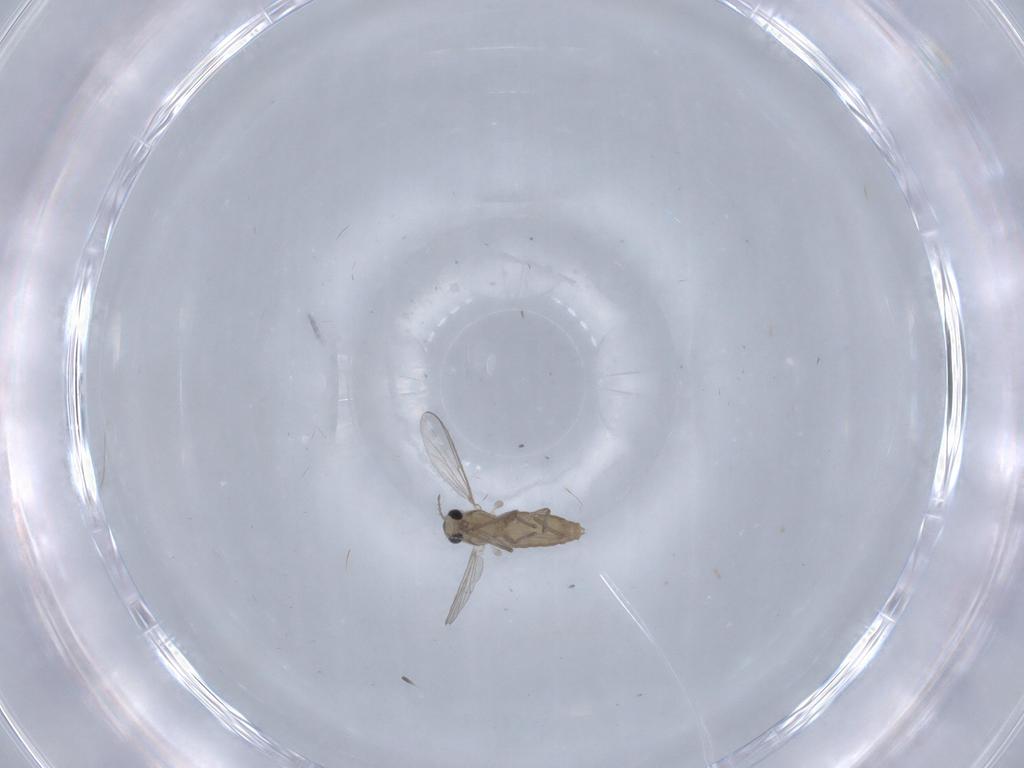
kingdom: Animalia
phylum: Arthropoda
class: Insecta
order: Diptera
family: Chironomidae
